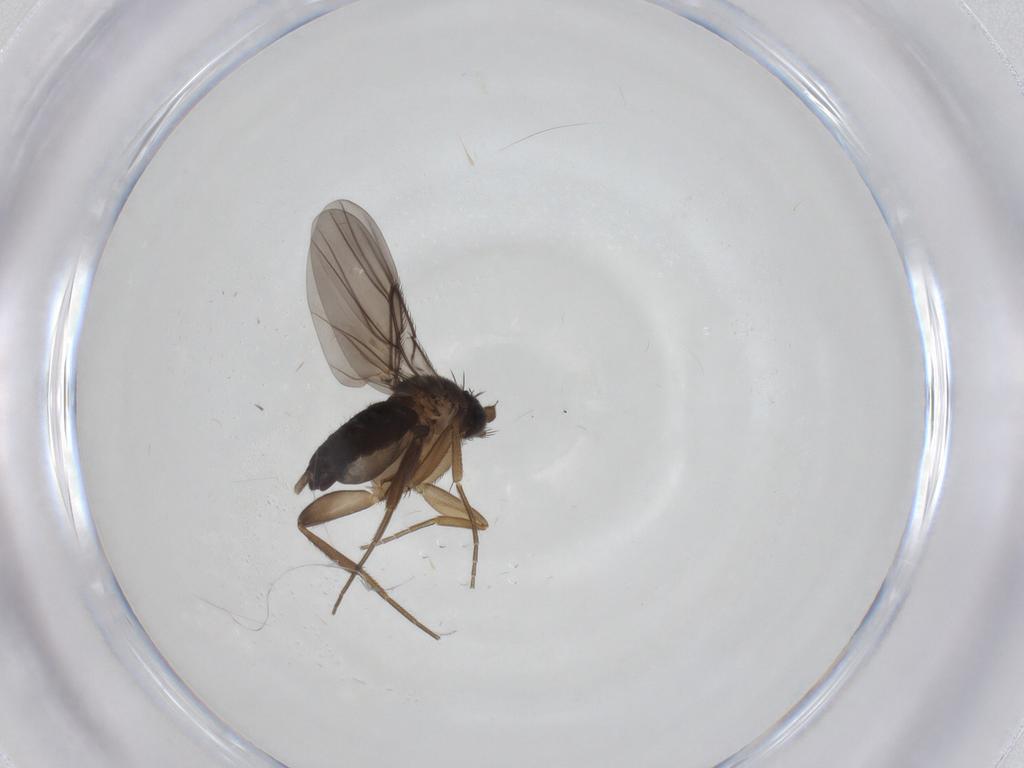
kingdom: Animalia
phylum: Arthropoda
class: Insecta
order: Diptera
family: Phoridae
